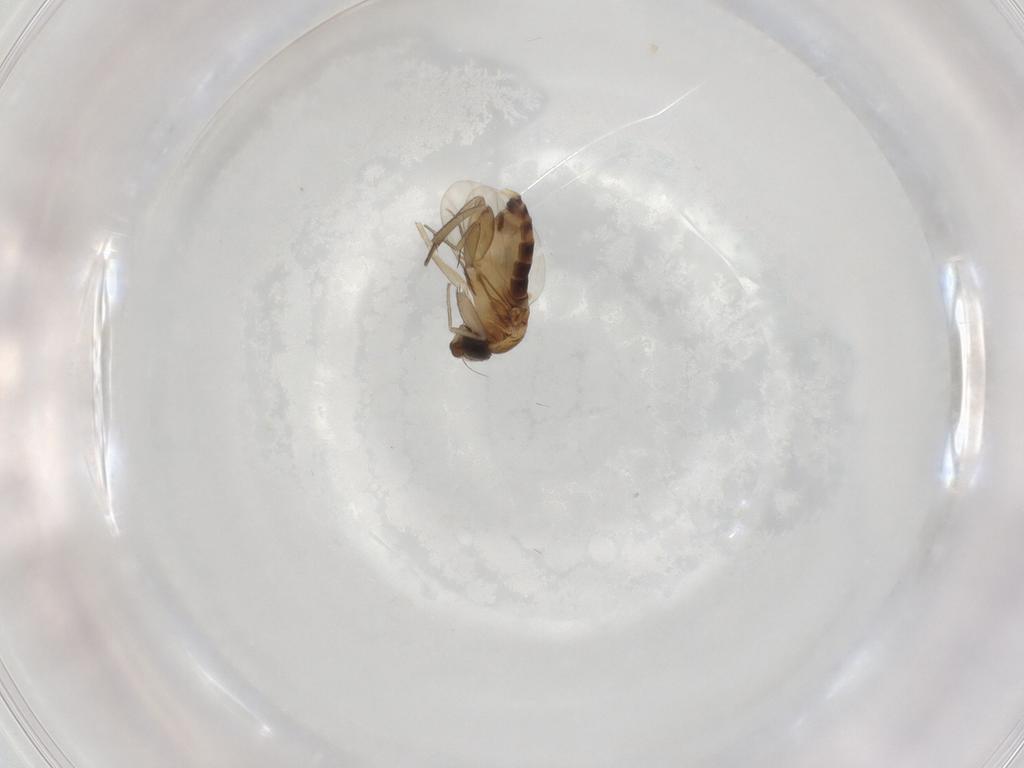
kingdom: Animalia
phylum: Arthropoda
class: Insecta
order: Diptera
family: Phoridae
